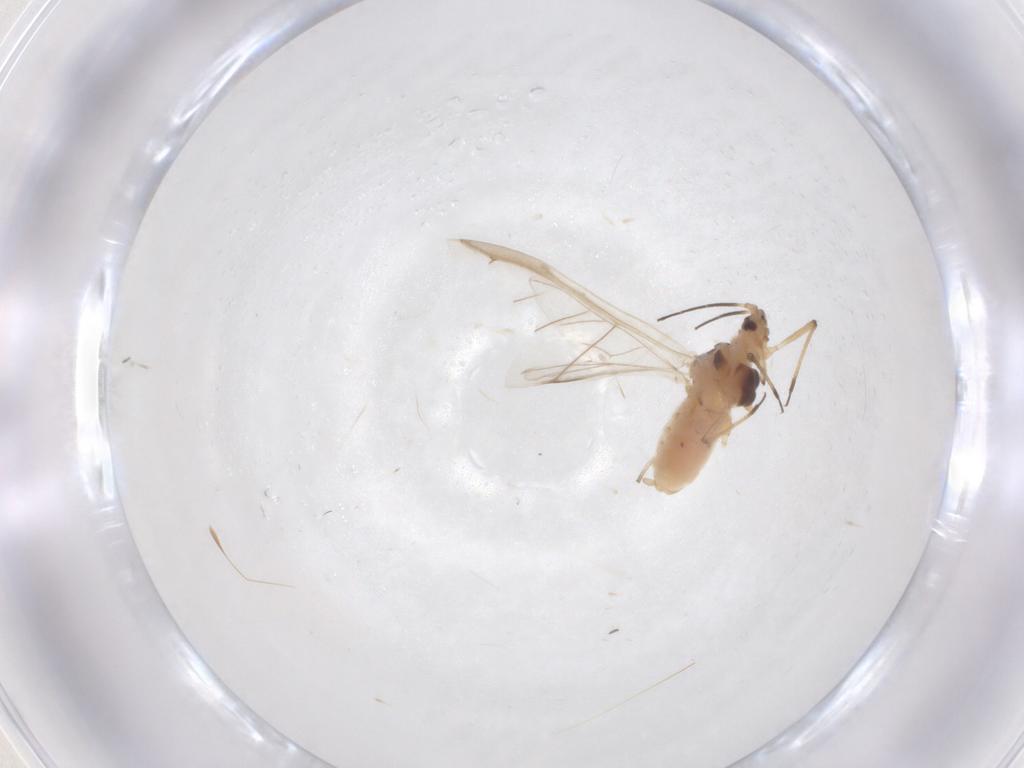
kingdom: Animalia
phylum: Arthropoda
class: Insecta
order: Hemiptera
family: Aphididae
